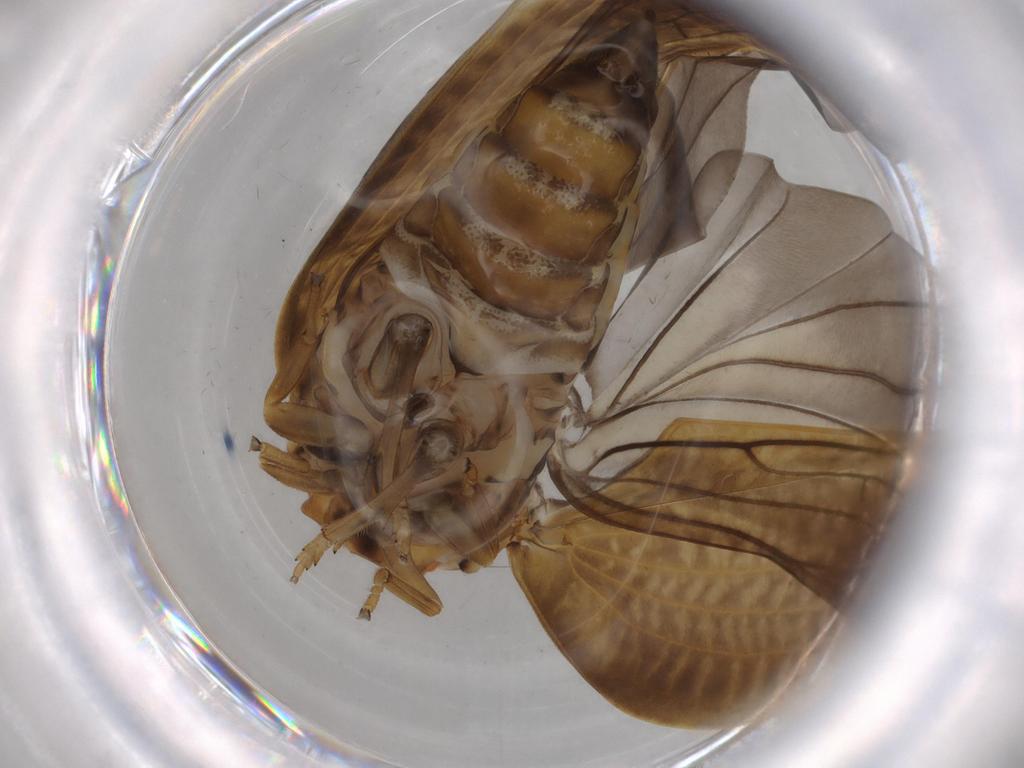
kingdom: Animalia
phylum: Arthropoda
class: Insecta
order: Hemiptera
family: Nogodinidae
